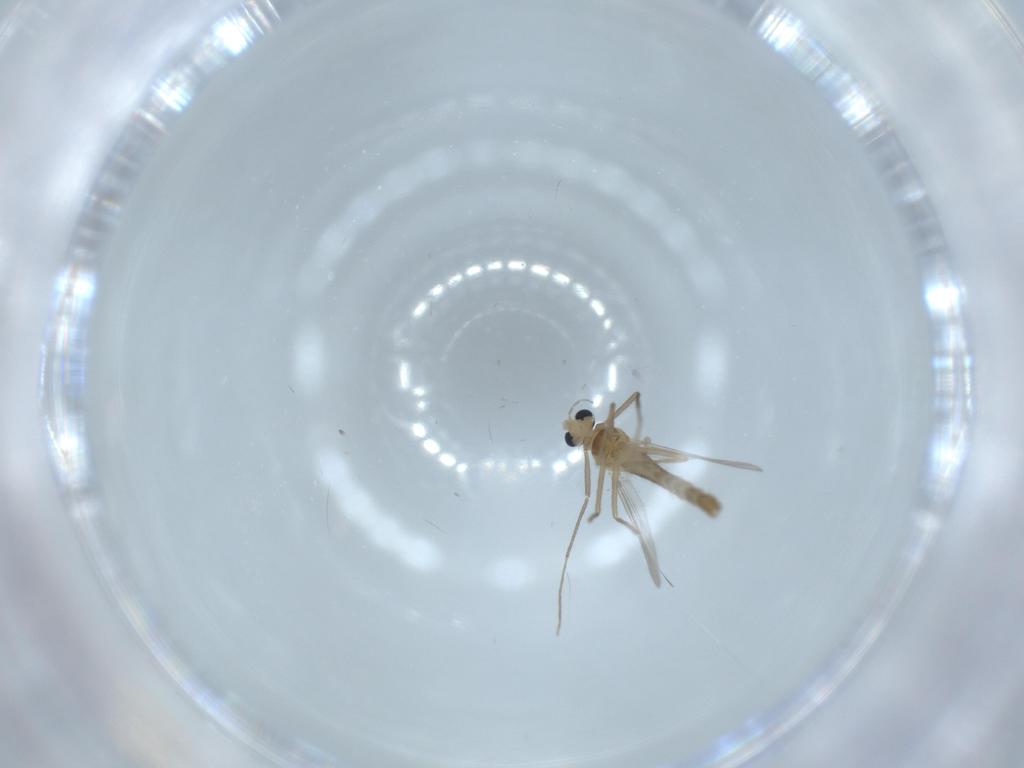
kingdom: Animalia
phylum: Arthropoda
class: Insecta
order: Diptera
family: Chironomidae
